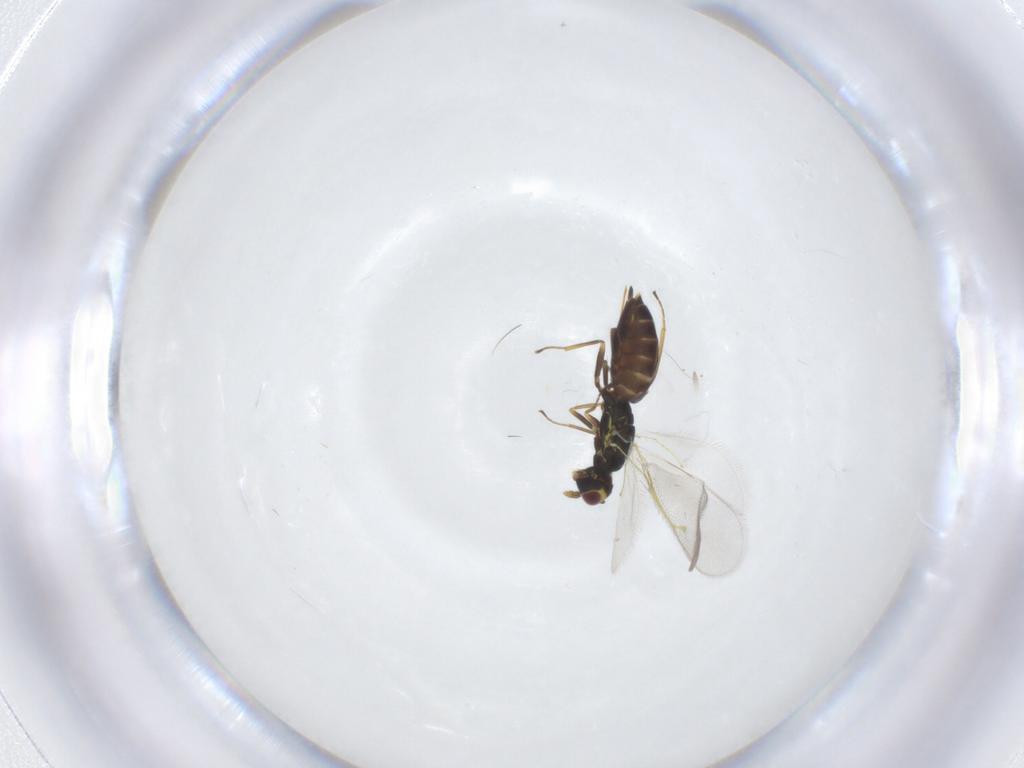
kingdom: Animalia
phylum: Arthropoda
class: Insecta
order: Hymenoptera
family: Eulophidae
